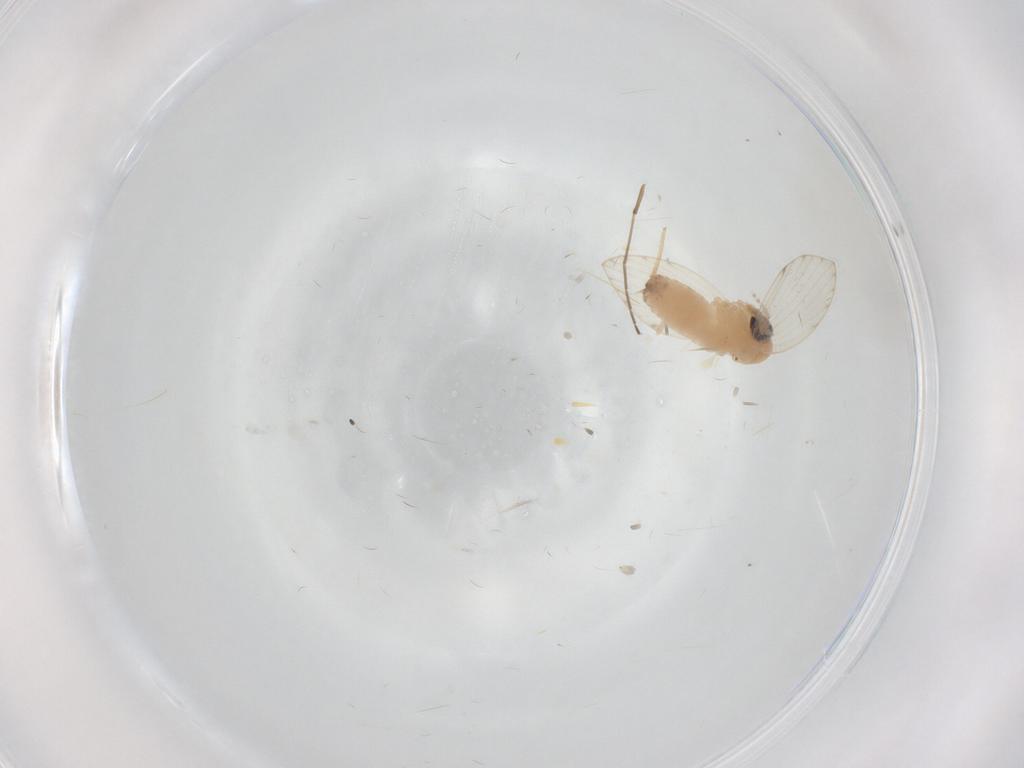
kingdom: Animalia
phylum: Arthropoda
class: Insecta
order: Diptera
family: Psychodidae
